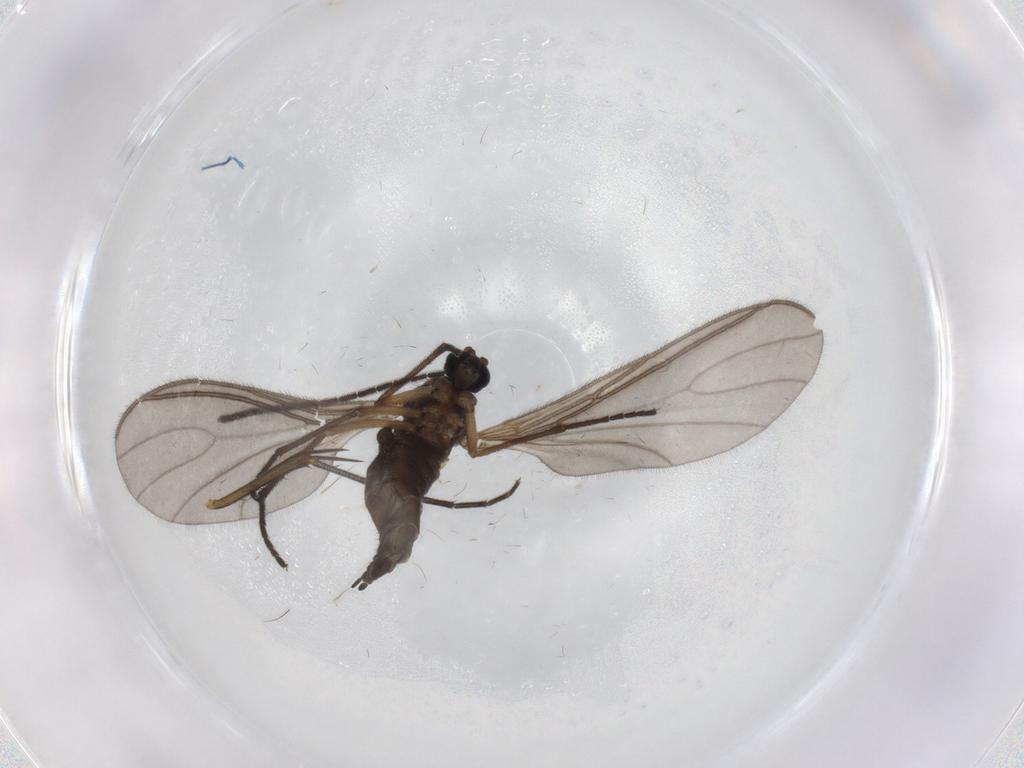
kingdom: Animalia
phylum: Arthropoda
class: Insecta
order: Diptera
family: Sciaridae
